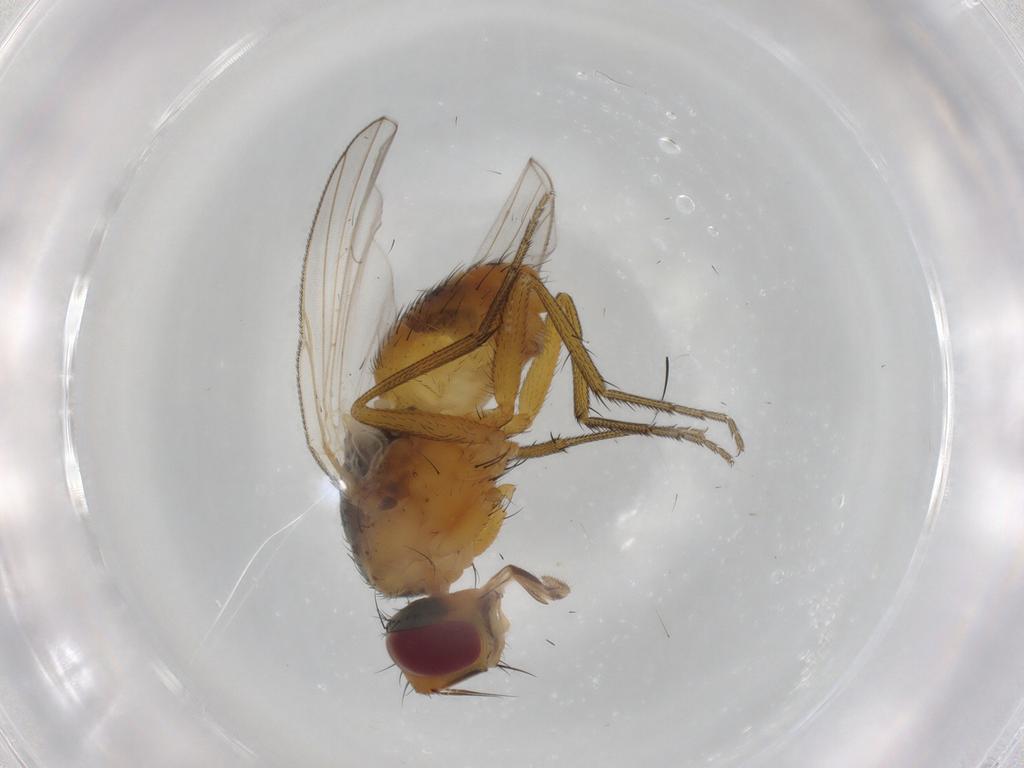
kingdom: Animalia
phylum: Arthropoda
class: Insecta
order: Diptera
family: Muscidae
